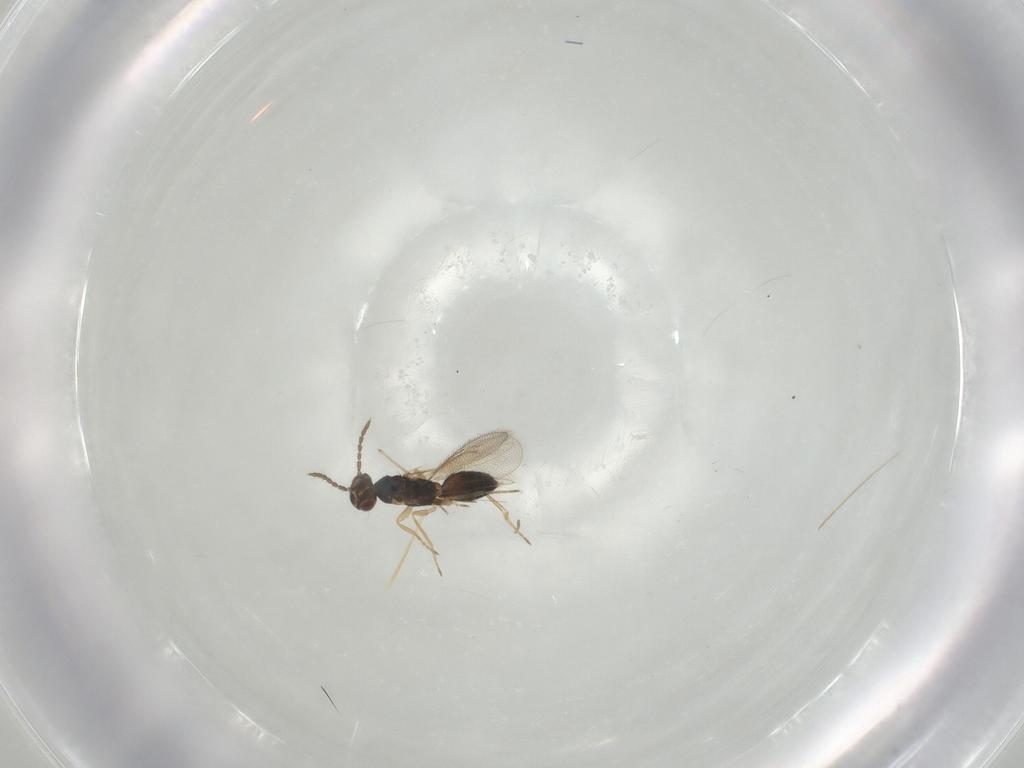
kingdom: Animalia
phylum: Arthropoda
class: Insecta
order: Hymenoptera
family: Eulophidae
